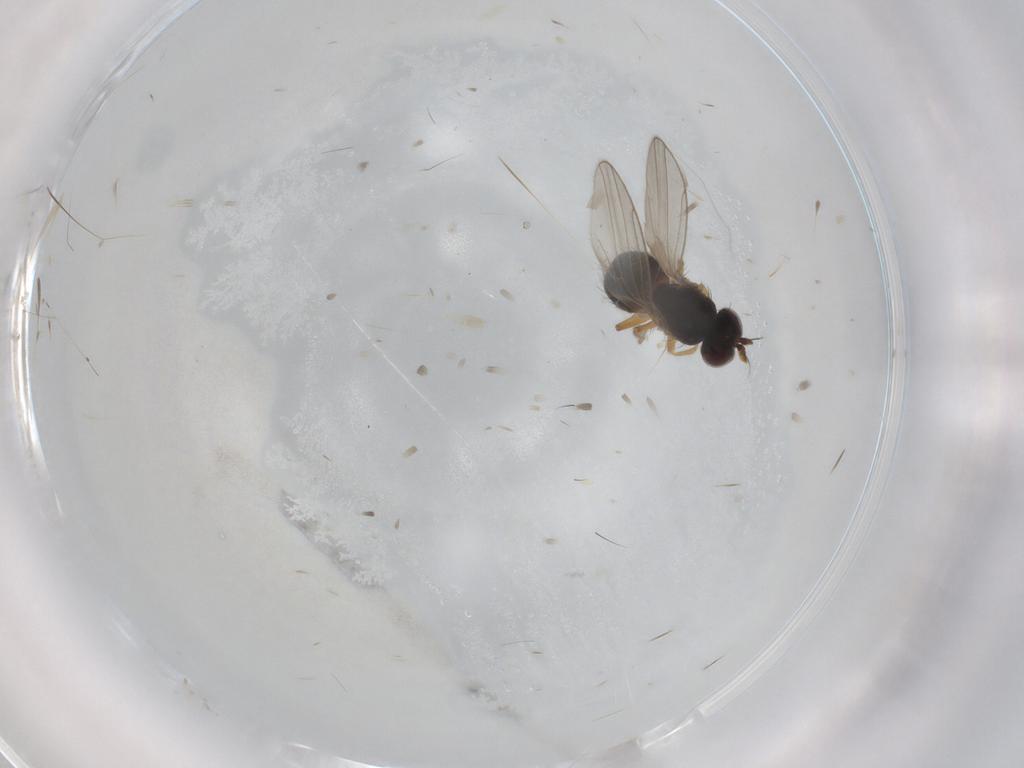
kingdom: Animalia
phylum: Arthropoda
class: Insecta
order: Diptera
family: Ephydridae
